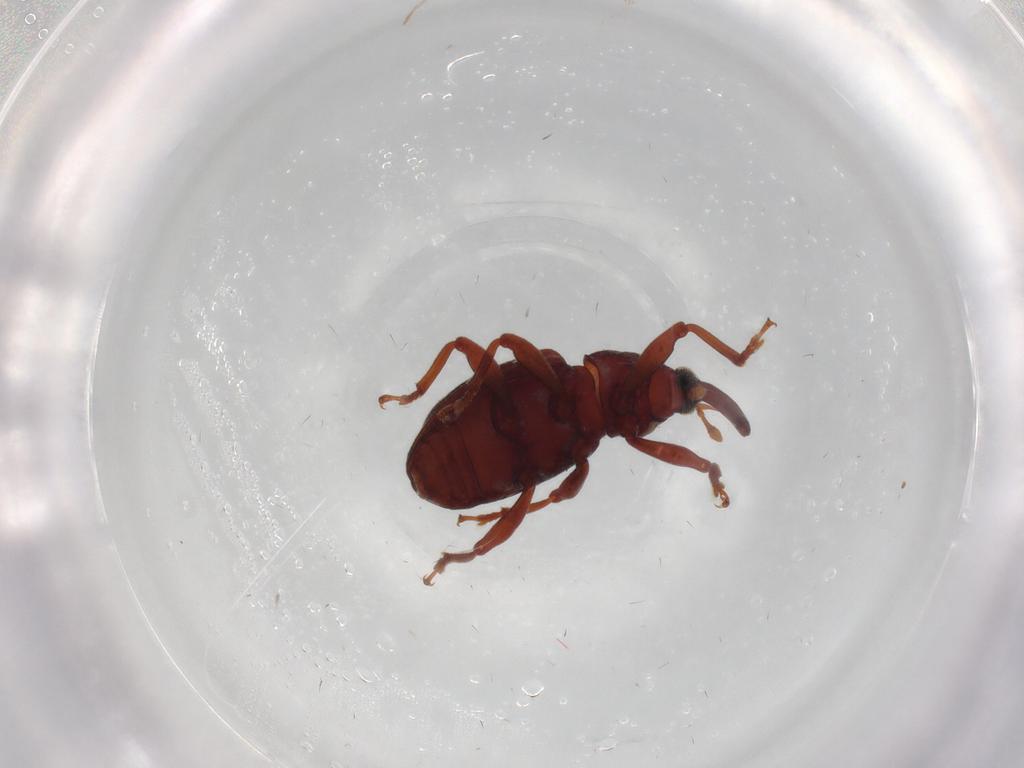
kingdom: Animalia
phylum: Arthropoda
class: Insecta
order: Coleoptera
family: Curculionidae
